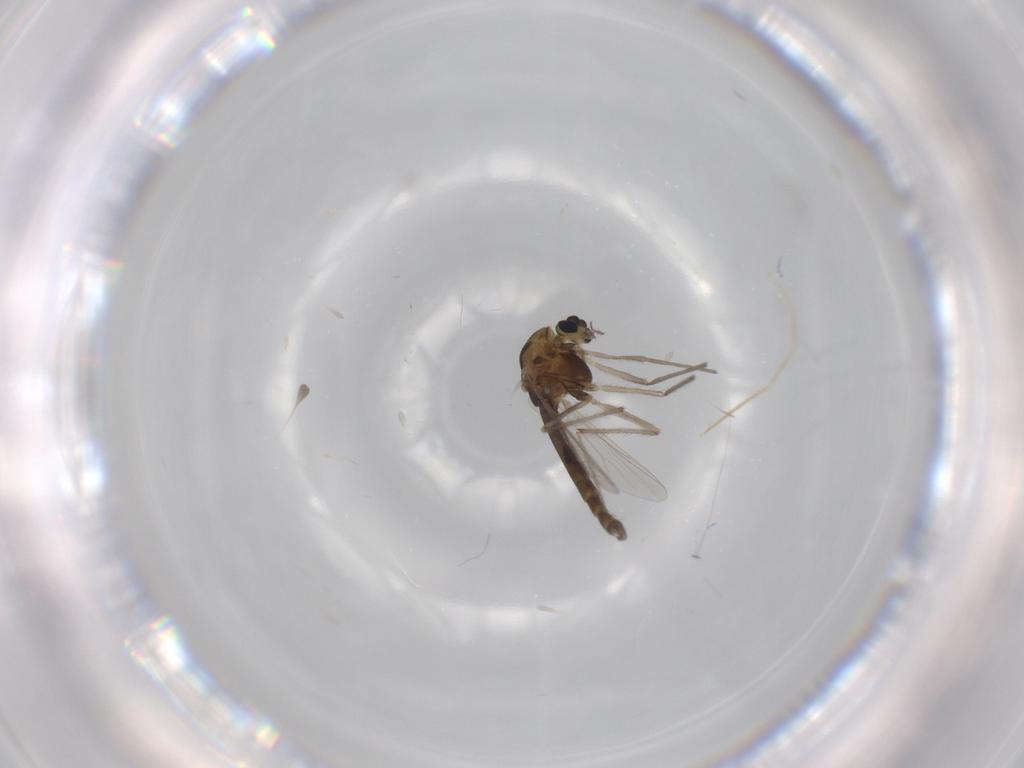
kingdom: Animalia
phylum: Arthropoda
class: Insecta
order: Diptera
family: Chironomidae
